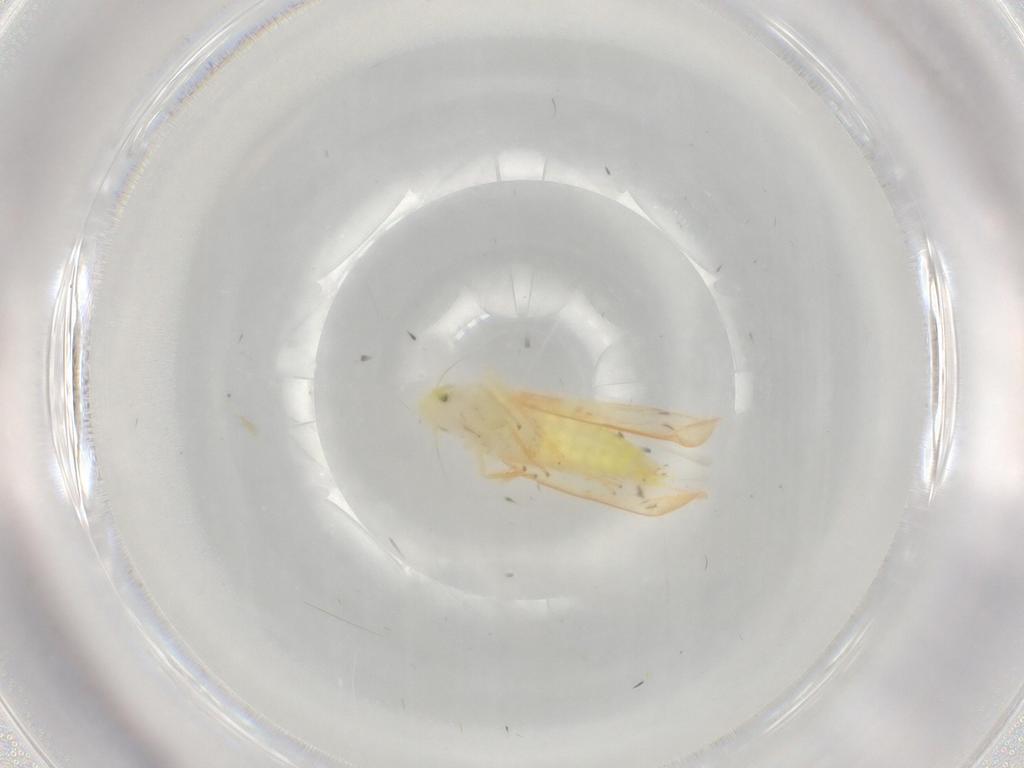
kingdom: Animalia
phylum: Arthropoda
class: Insecta
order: Hemiptera
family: Cicadellidae
